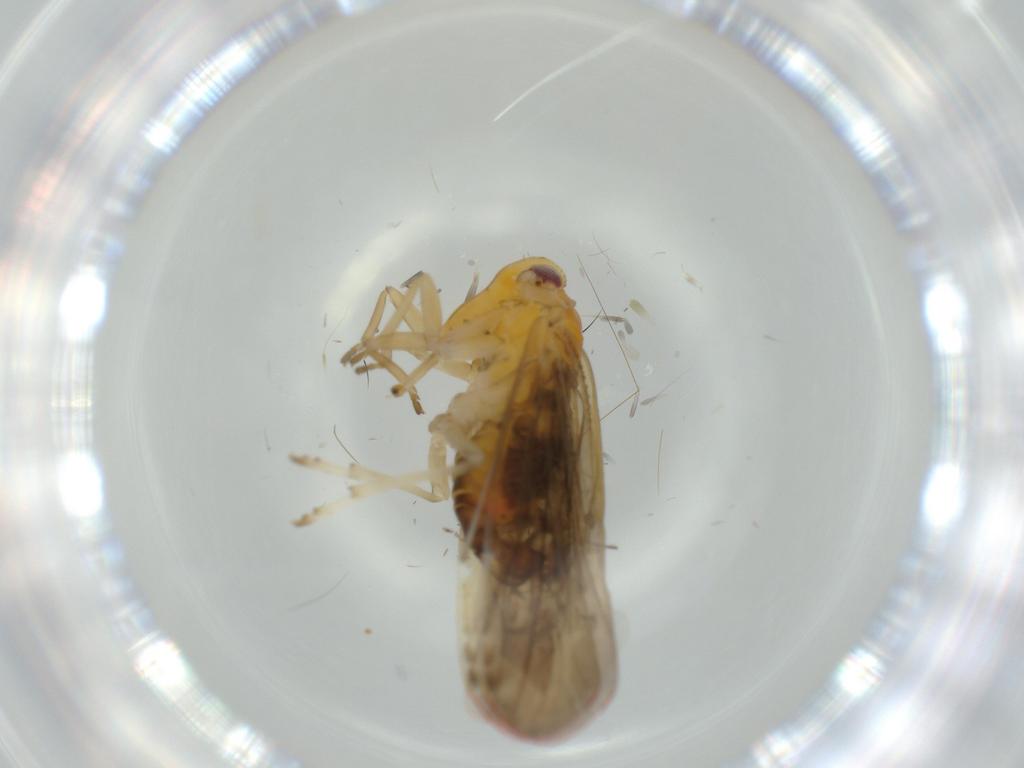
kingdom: Animalia
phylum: Arthropoda
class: Insecta
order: Hemiptera
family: Derbidae
